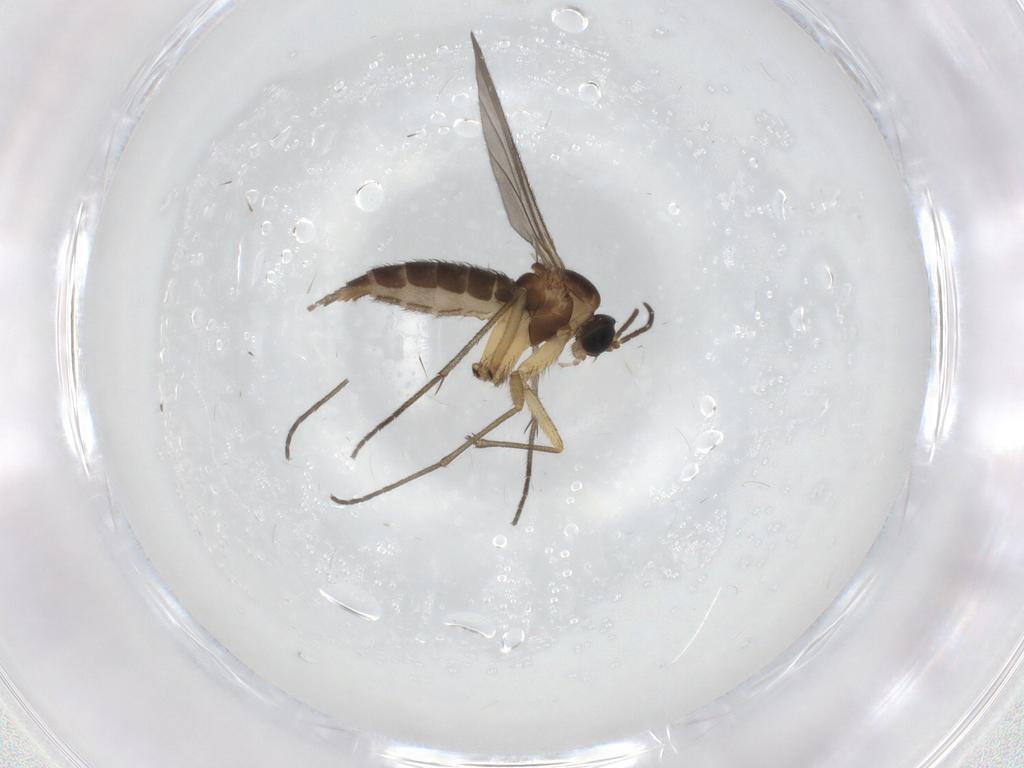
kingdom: Animalia
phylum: Arthropoda
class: Insecta
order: Diptera
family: Sciaridae
